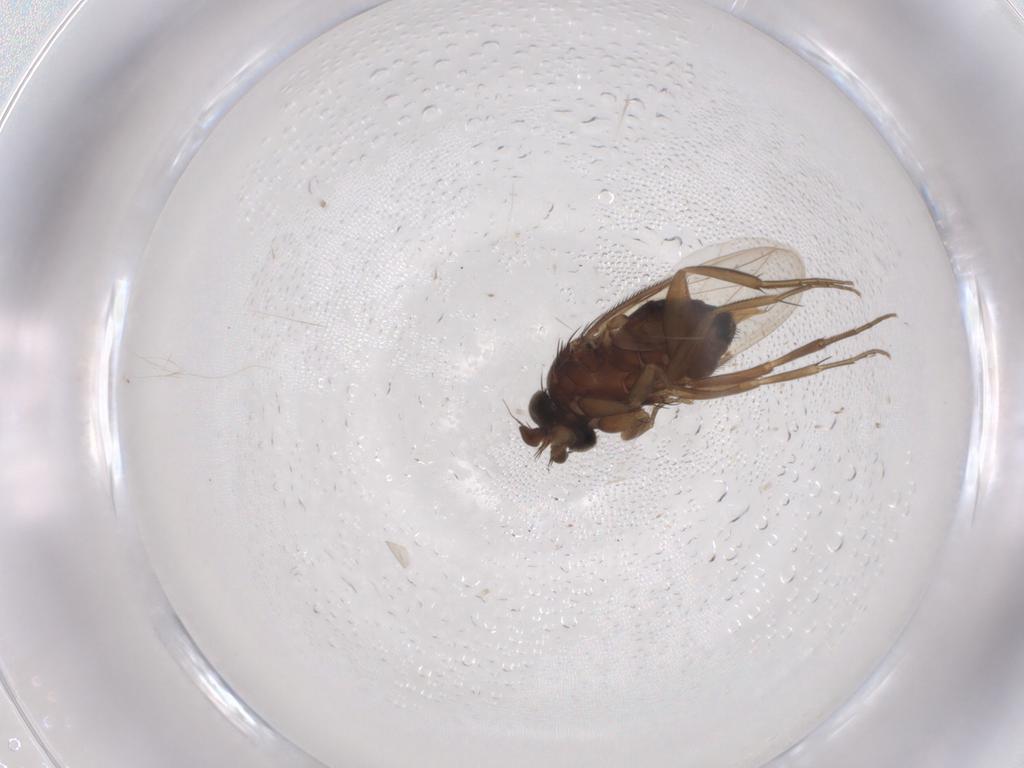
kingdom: Animalia
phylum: Arthropoda
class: Insecta
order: Diptera
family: Phoridae
